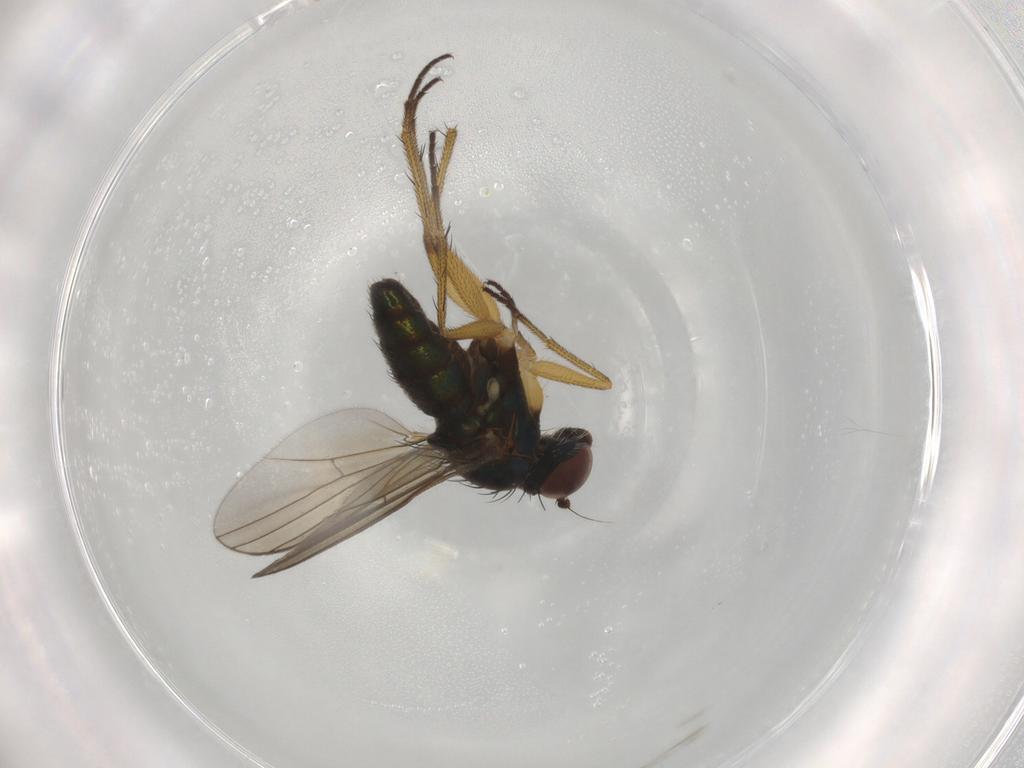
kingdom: Animalia
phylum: Arthropoda
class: Insecta
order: Diptera
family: Dolichopodidae
